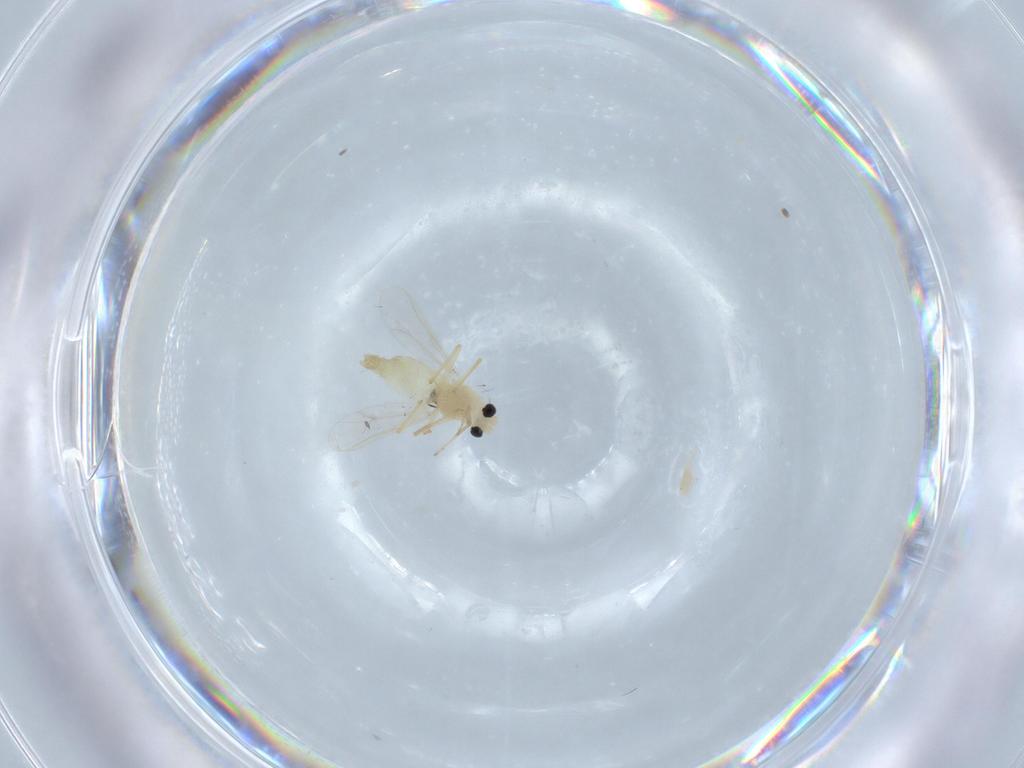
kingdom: Animalia
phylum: Arthropoda
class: Insecta
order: Diptera
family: Chironomidae
